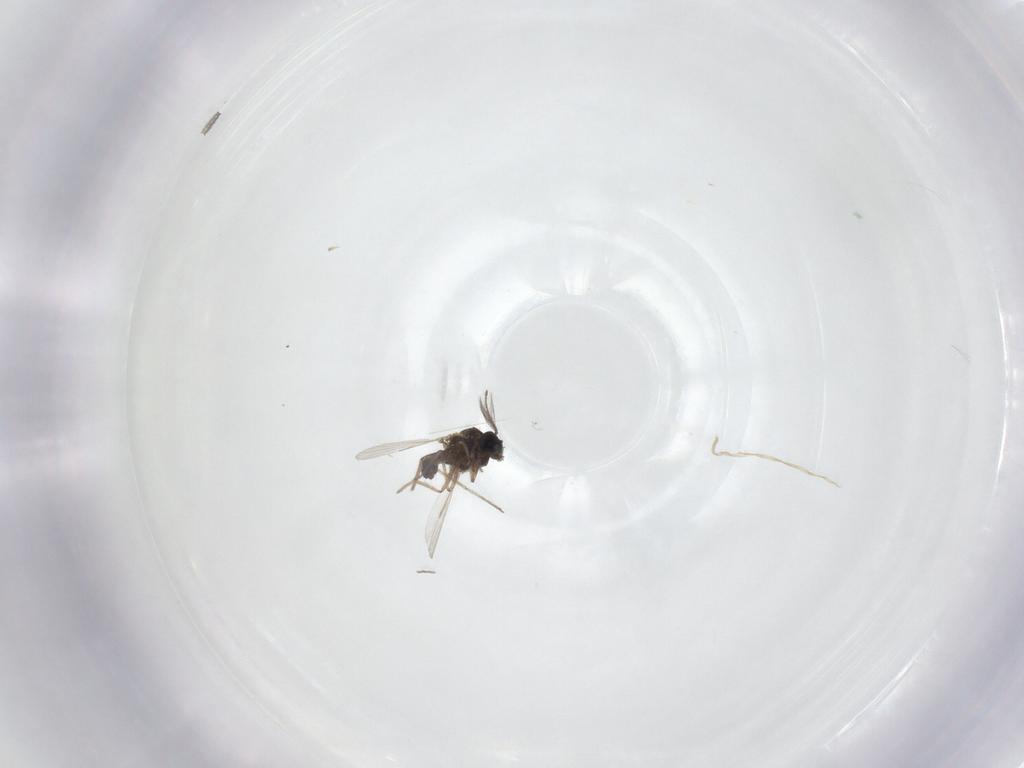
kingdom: Animalia
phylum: Arthropoda
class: Insecta
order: Diptera
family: Ceratopogonidae
